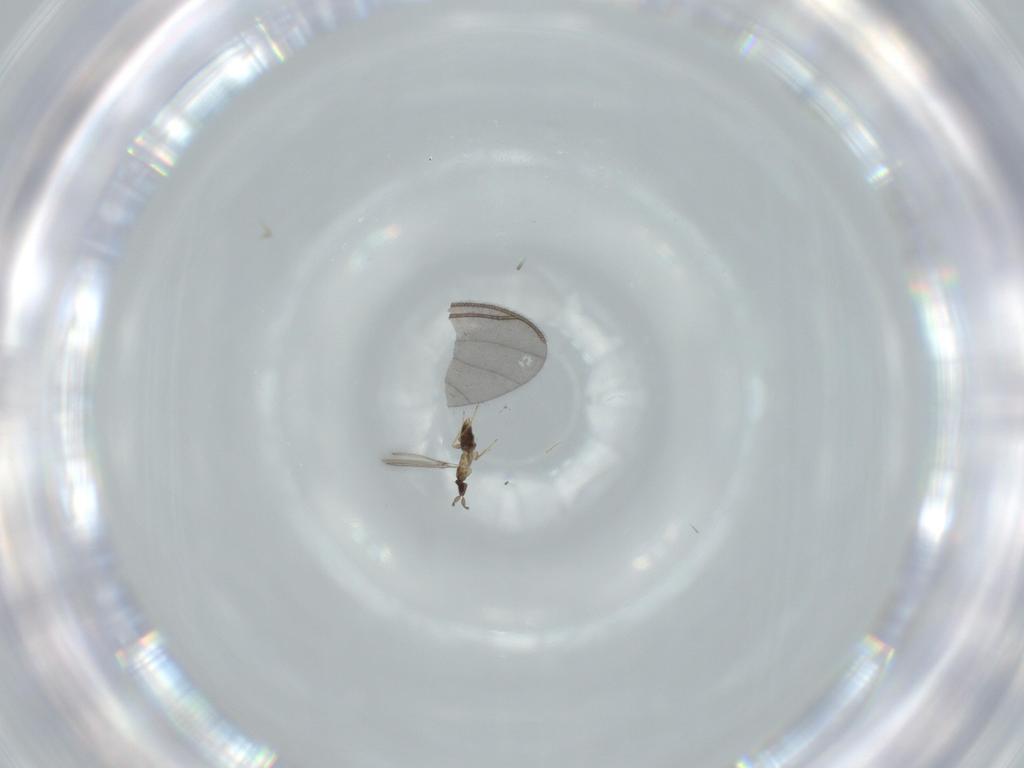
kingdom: Animalia
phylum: Arthropoda
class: Insecta
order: Hymenoptera
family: Mymaridae
